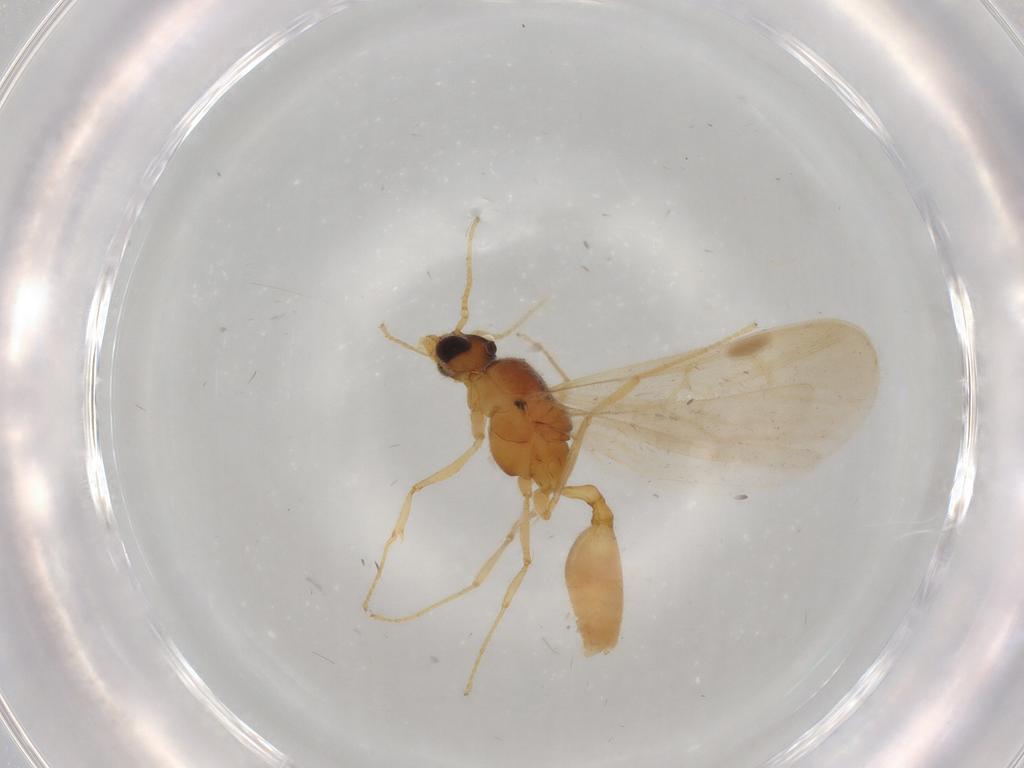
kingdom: Animalia
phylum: Arthropoda
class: Insecta
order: Hymenoptera
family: Formicidae
